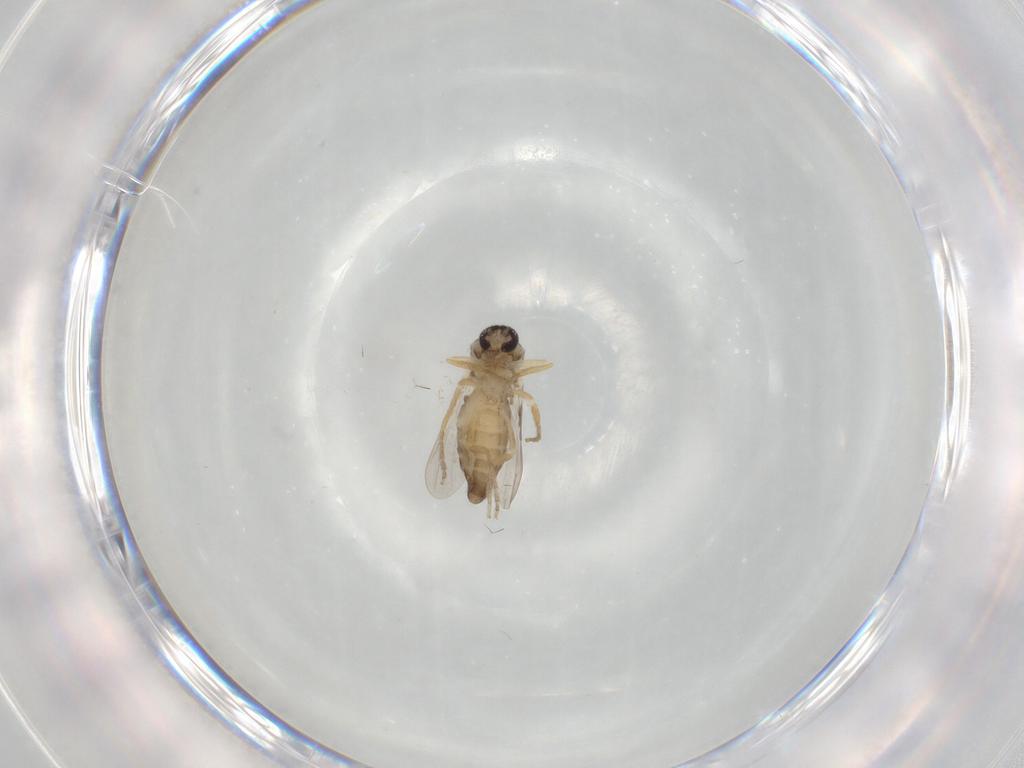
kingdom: Animalia
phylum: Arthropoda
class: Insecta
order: Diptera
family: Ceratopogonidae
